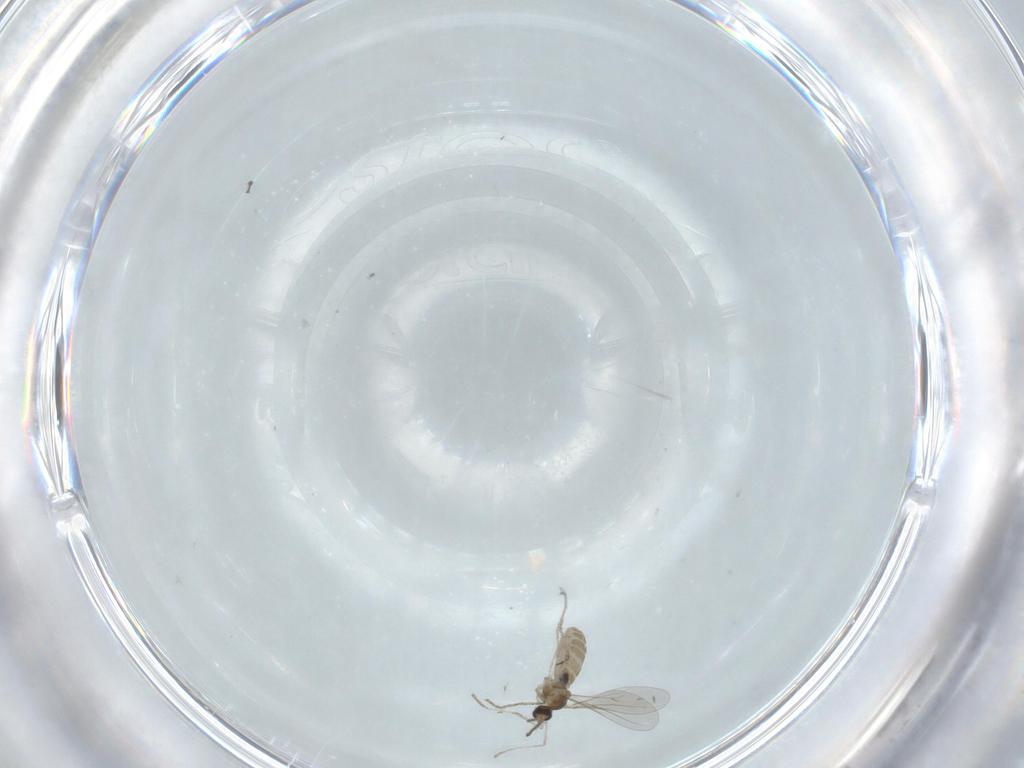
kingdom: Animalia
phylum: Arthropoda
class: Insecta
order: Diptera
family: Cecidomyiidae
